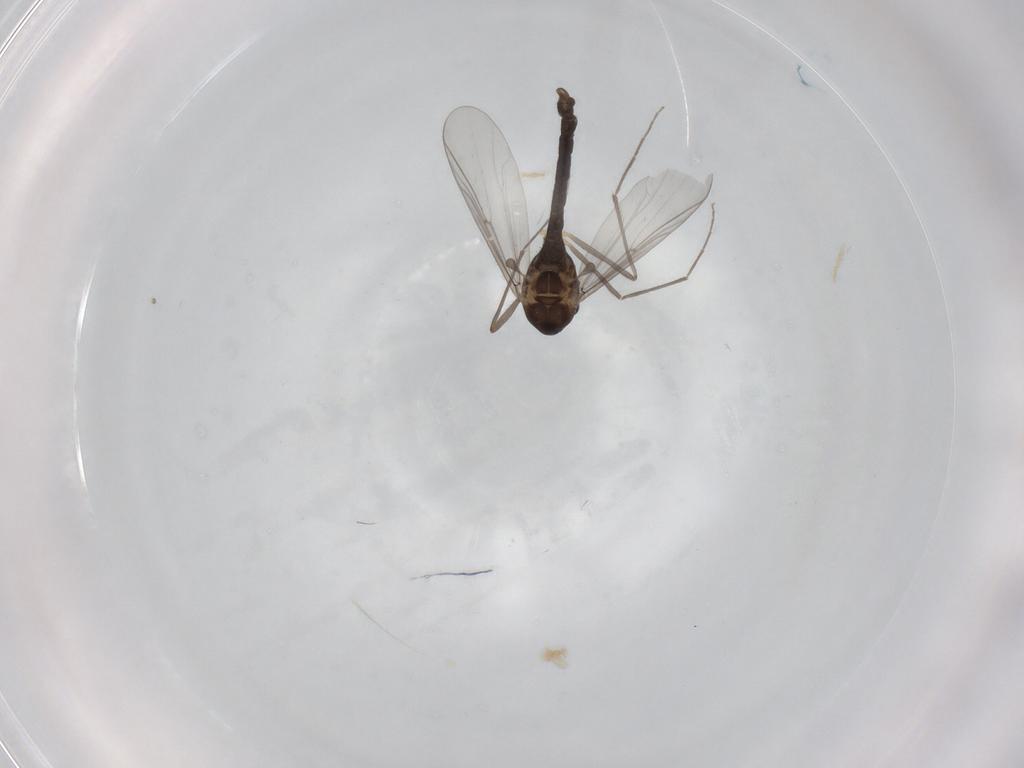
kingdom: Animalia
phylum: Arthropoda
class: Insecta
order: Diptera
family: Chironomidae
